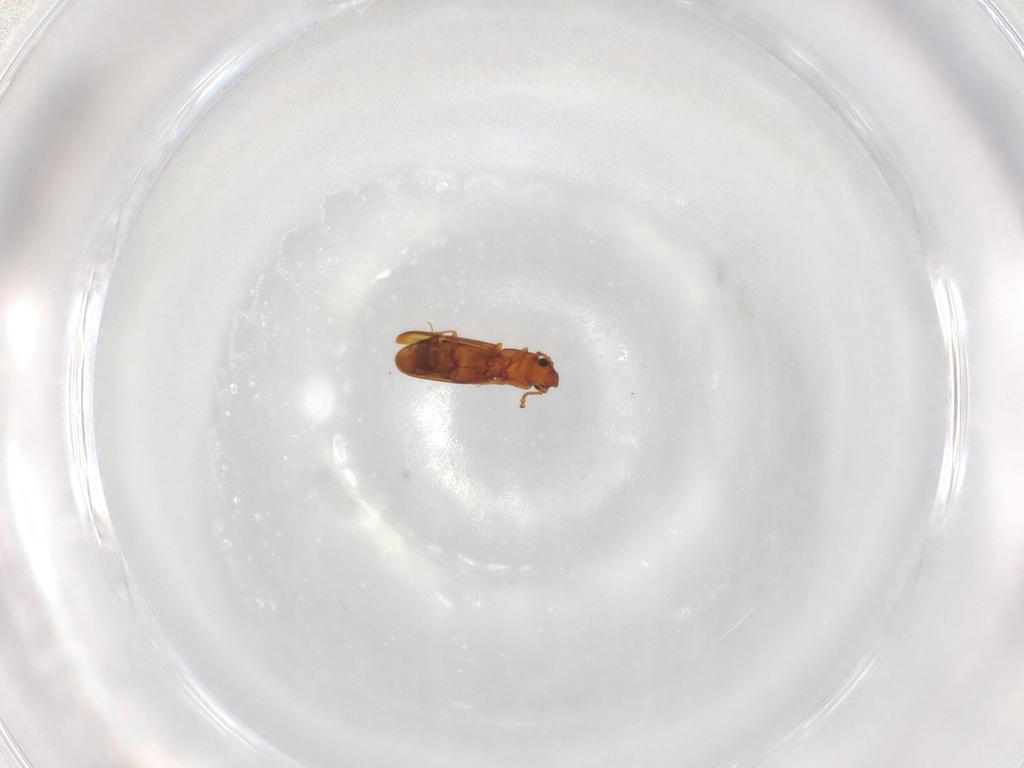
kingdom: Animalia
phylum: Arthropoda
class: Insecta
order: Coleoptera
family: Laemophloeidae
